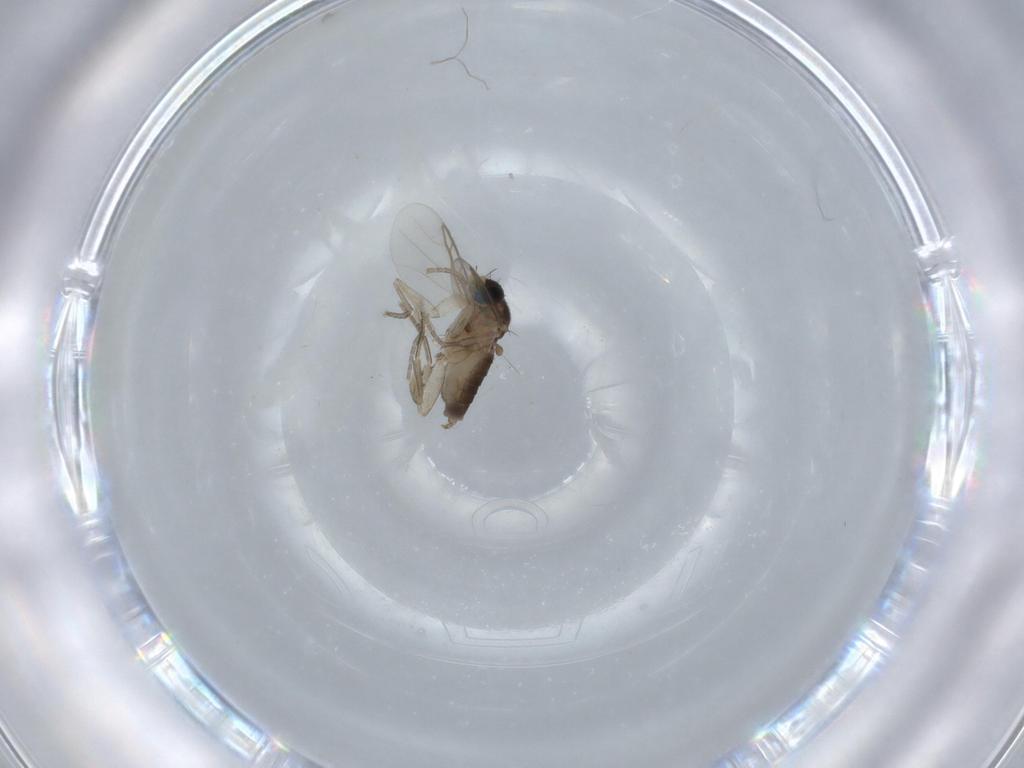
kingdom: Animalia
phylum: Arthropoda
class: Insecta
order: Diptera
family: Phoridae
